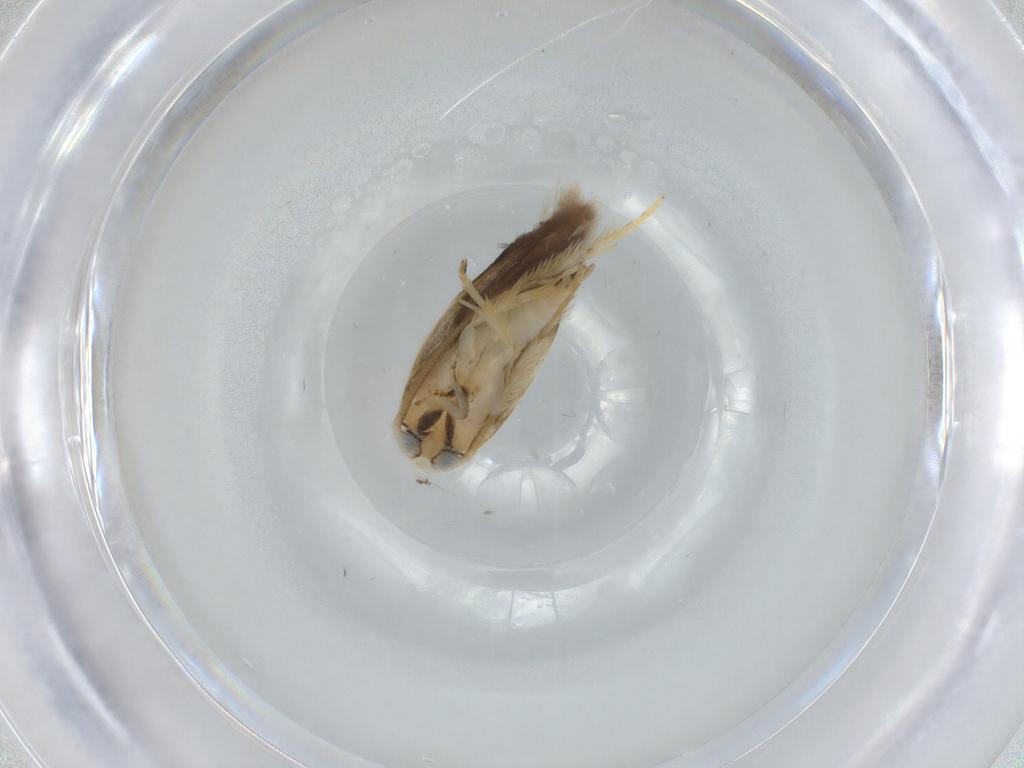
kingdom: Animalia
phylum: Arthropoda
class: Insecta
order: Lepidoptera
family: Opostegidae
